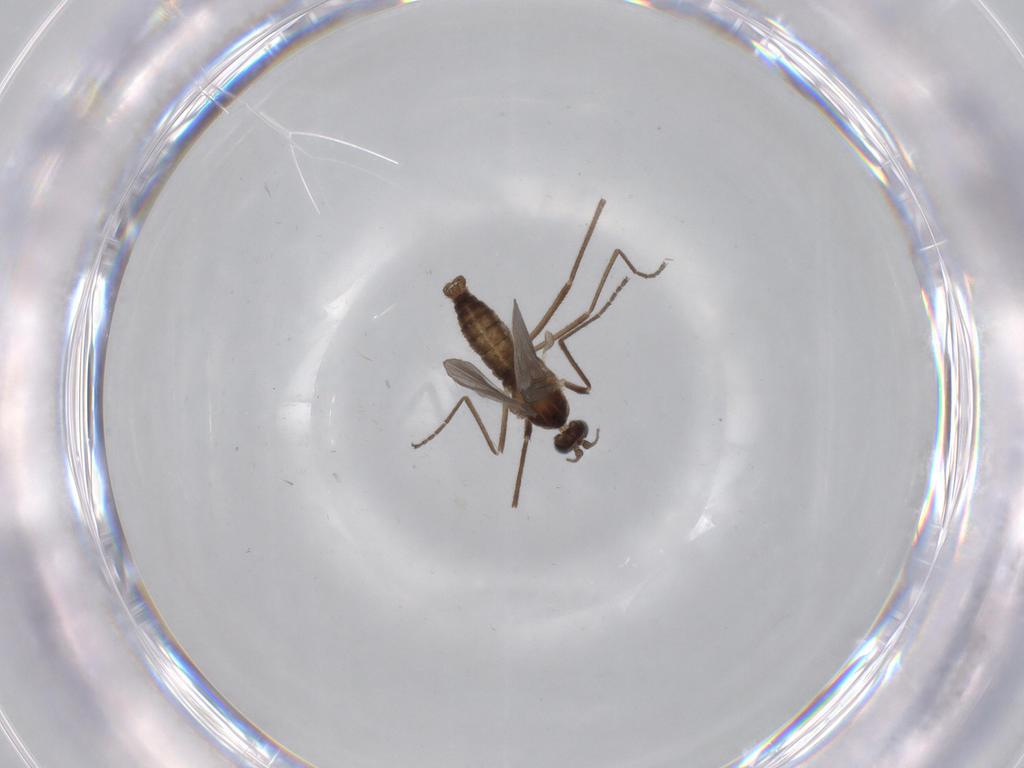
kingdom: Animalia
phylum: Arthropoda
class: Insecta
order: Diptera
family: Cecidomyiidae
